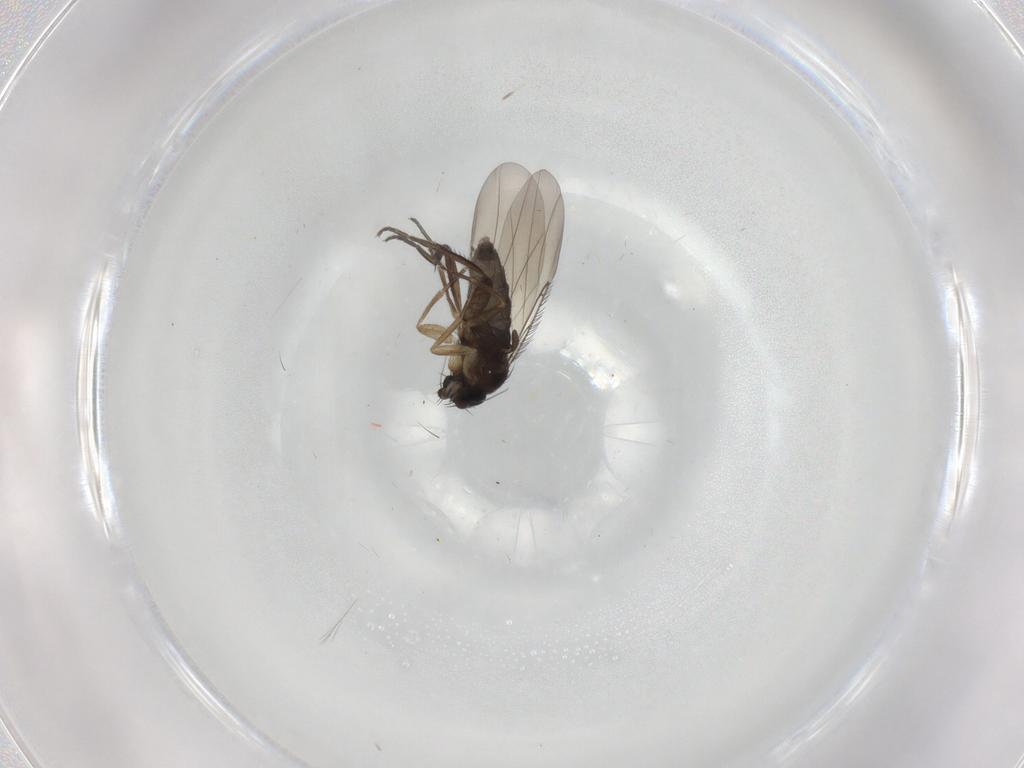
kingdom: Animalia
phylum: Arthropoda
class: Insecta
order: Diptera
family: Phoridae
